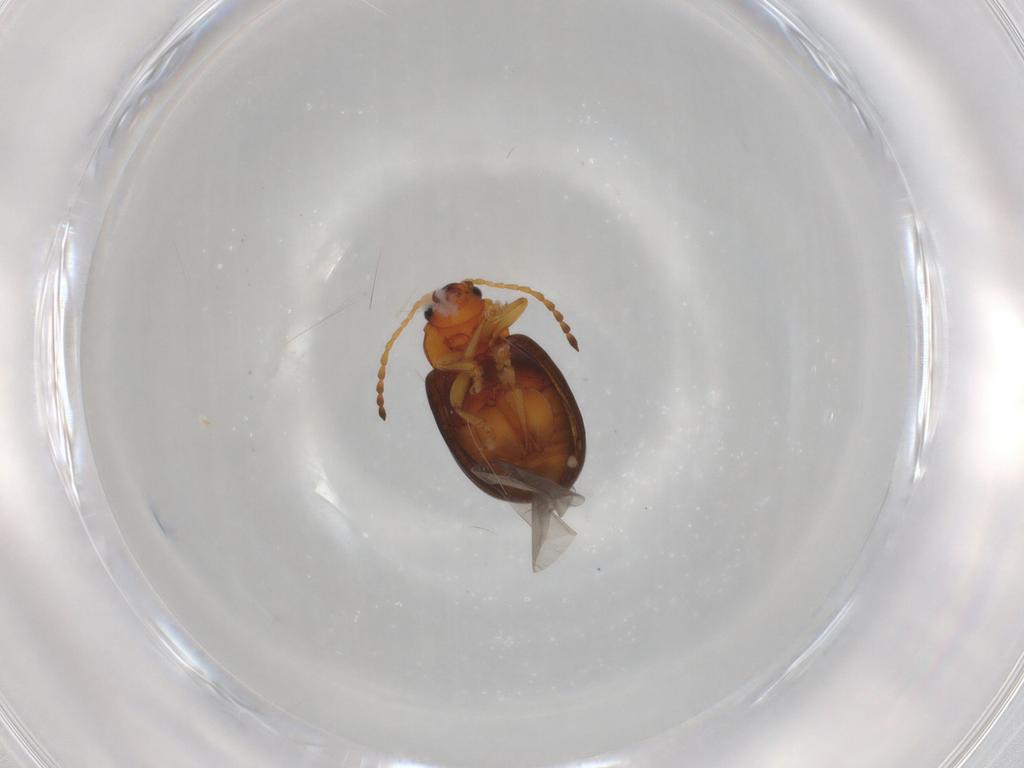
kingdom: Animalia
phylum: Arthropoda
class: Insecta
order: Coleoptera
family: Chrysomelidae
